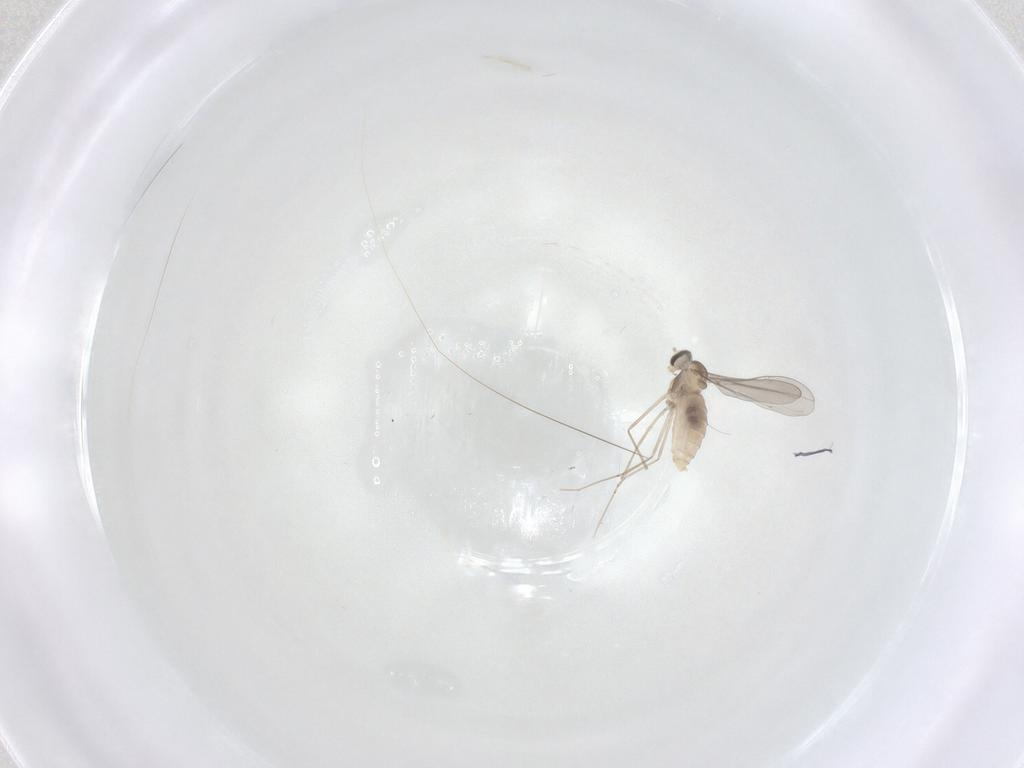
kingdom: Animalia
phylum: Arthropoda
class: Insecta
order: Diptera
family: Cecidomyiidae
